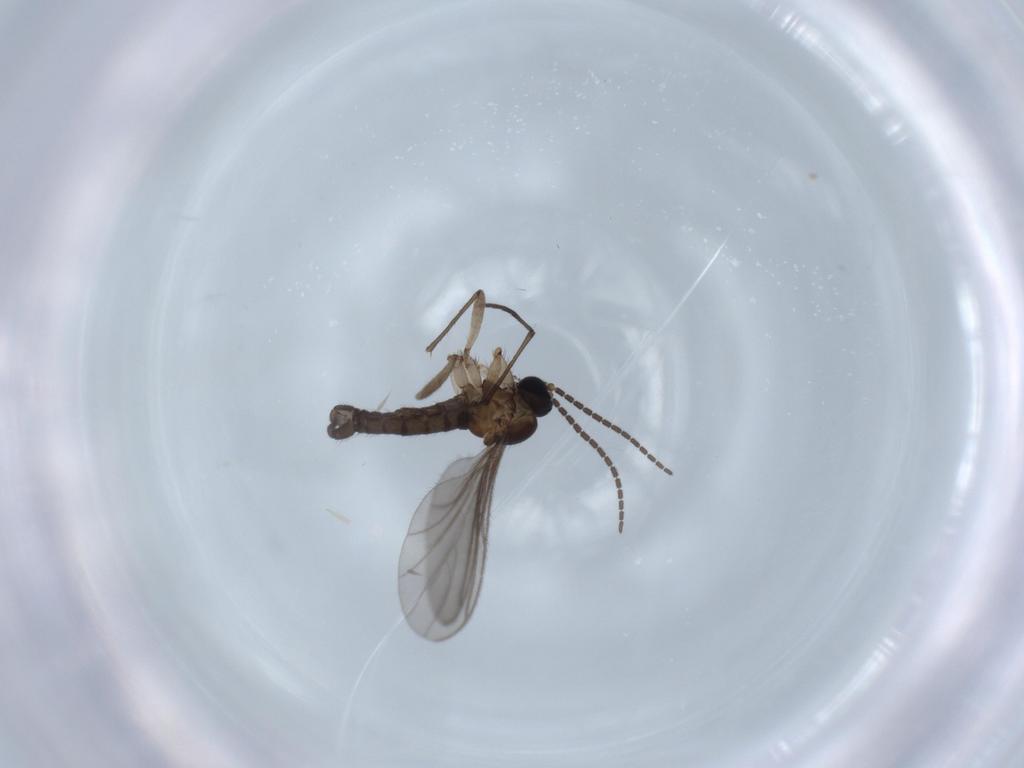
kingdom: Animalia
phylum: Arthropoda
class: Insecta
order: Diptera
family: Sciaridae
